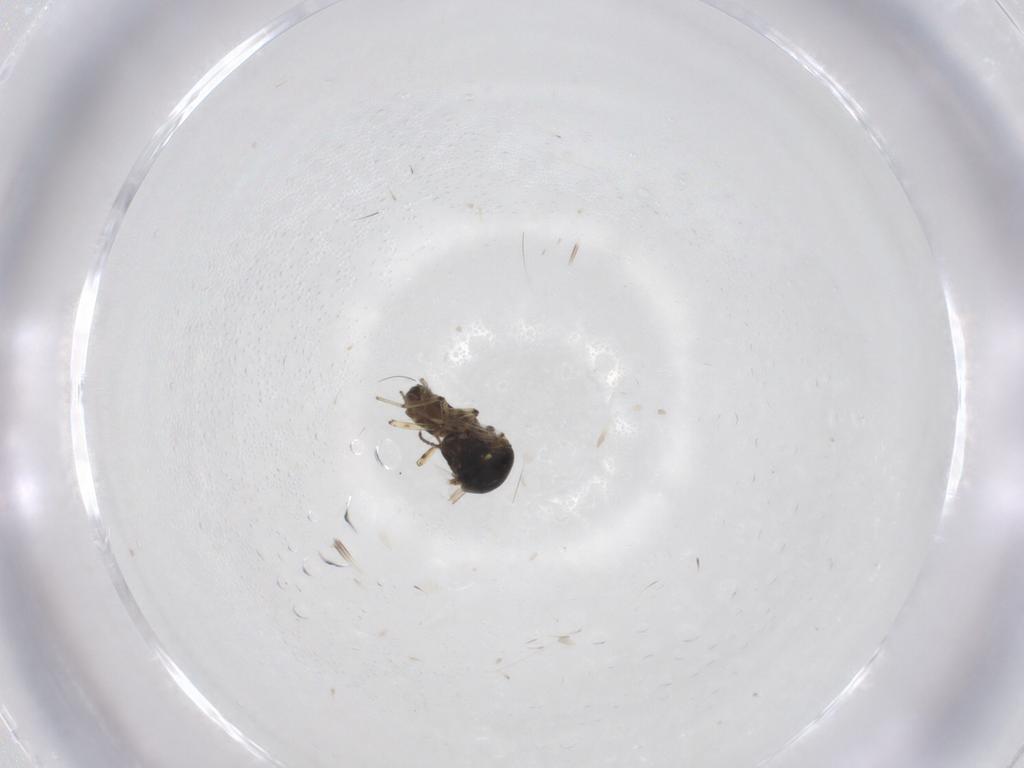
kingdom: Animalia
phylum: Arthropoda
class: Insecta
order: Diptera
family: Ceratopogonidae
